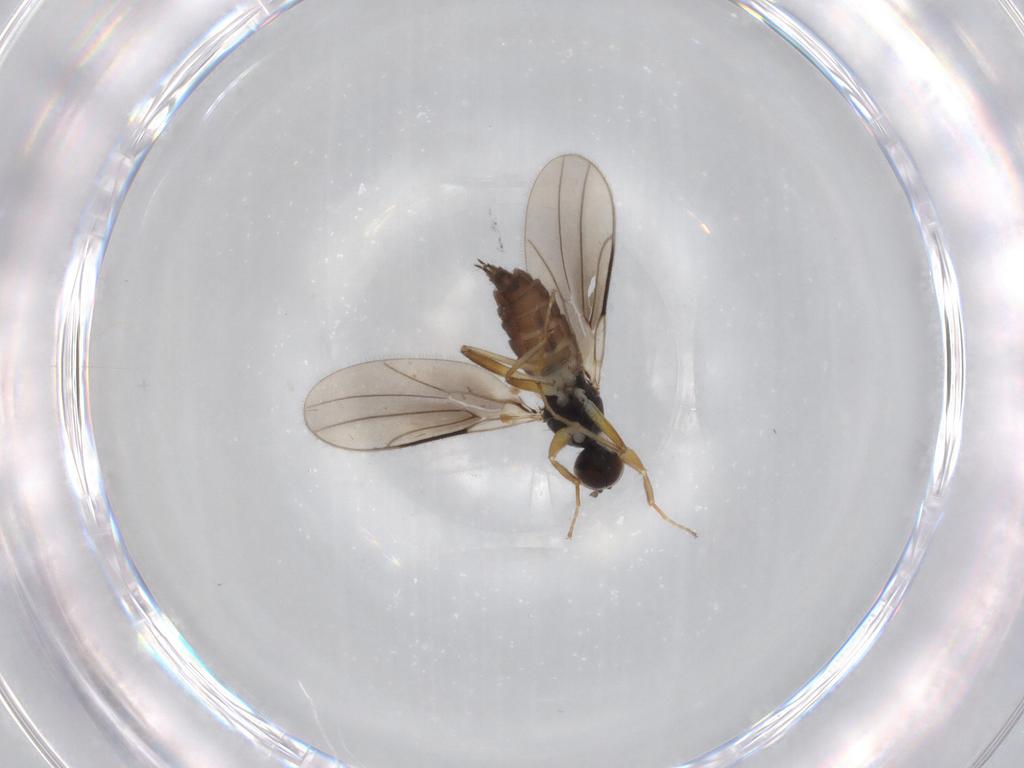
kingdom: Animalia
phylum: Arthropoda
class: Insecta
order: Diptera
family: Hybotidae
